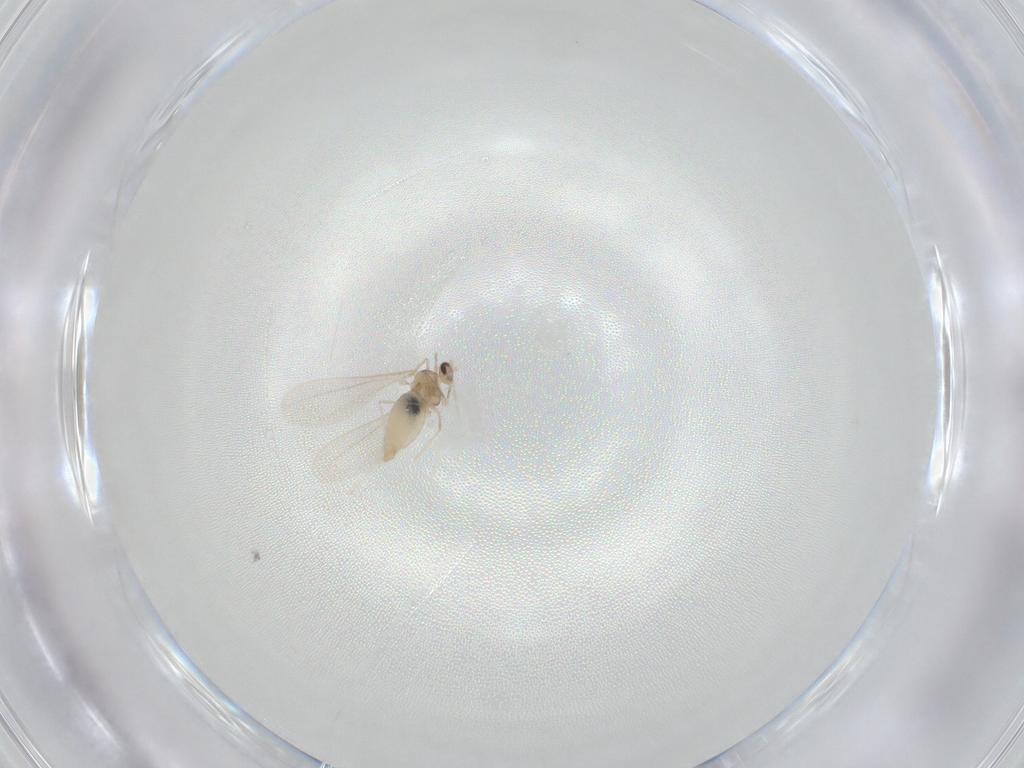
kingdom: Animalia
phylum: Arthropoda
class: Insecta
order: Diptera
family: Cecidomyiidae
